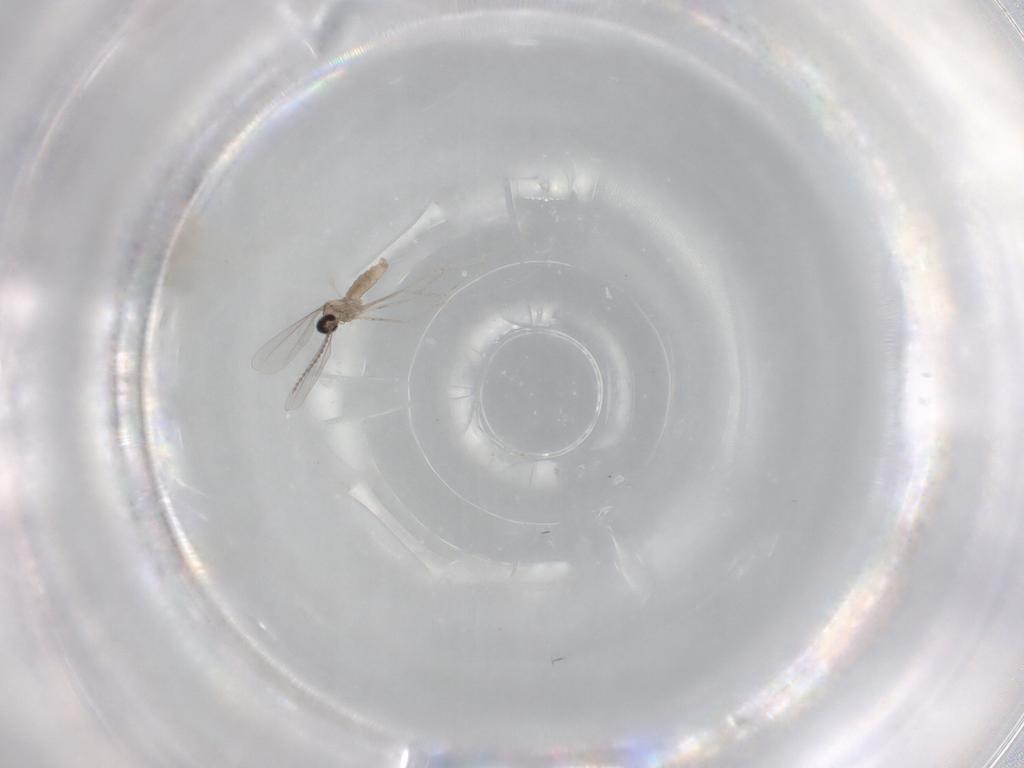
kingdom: Animalia
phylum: Arthropoda
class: Insecta
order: Diptera
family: Cecidomyiidae
